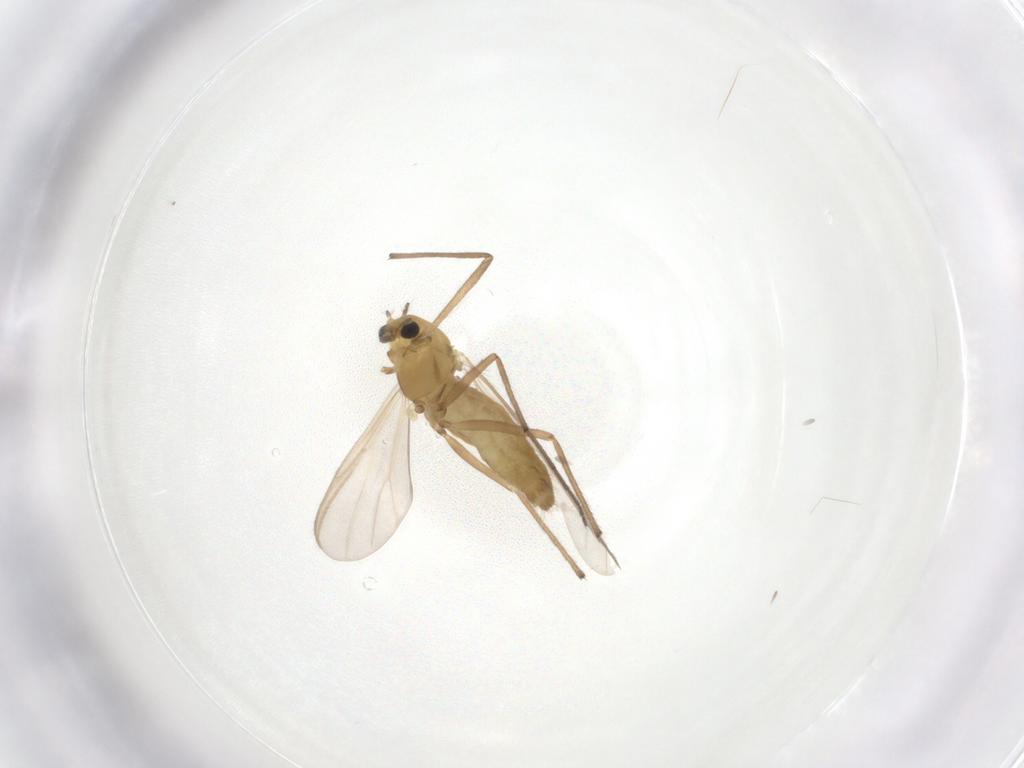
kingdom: Animalia
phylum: Arthropoda
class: Insecta
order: Diptera
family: Chironomidae
